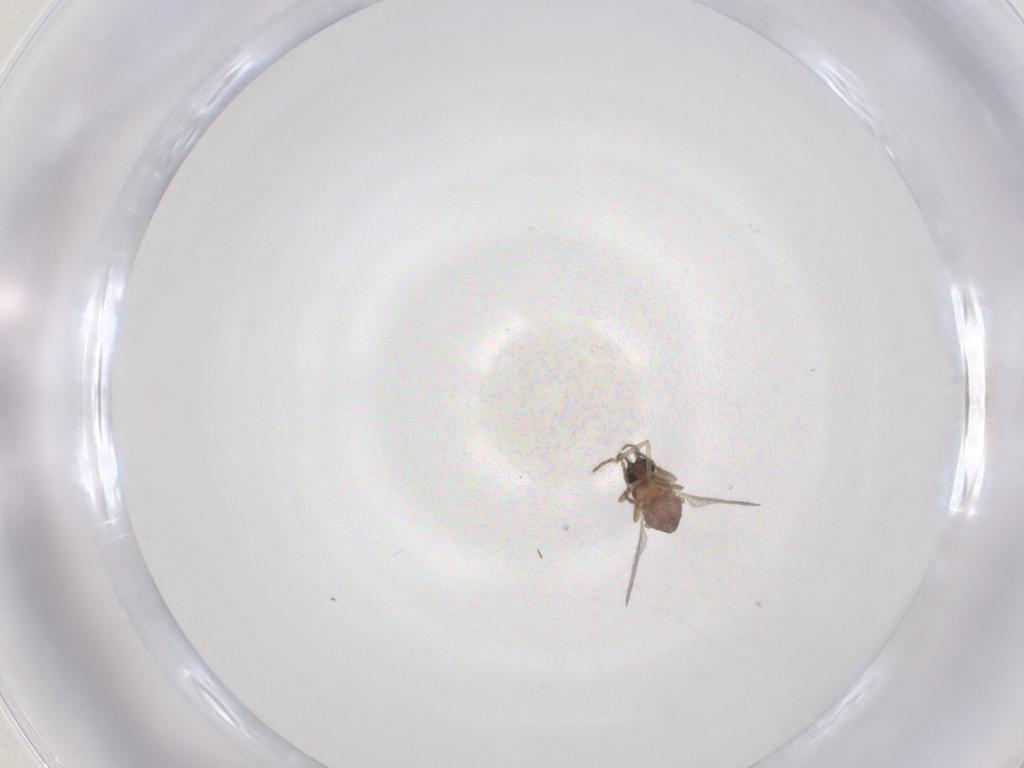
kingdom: Animalia
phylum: Arthropoda
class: Insecta
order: Diptera
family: Ceratopogonidae
